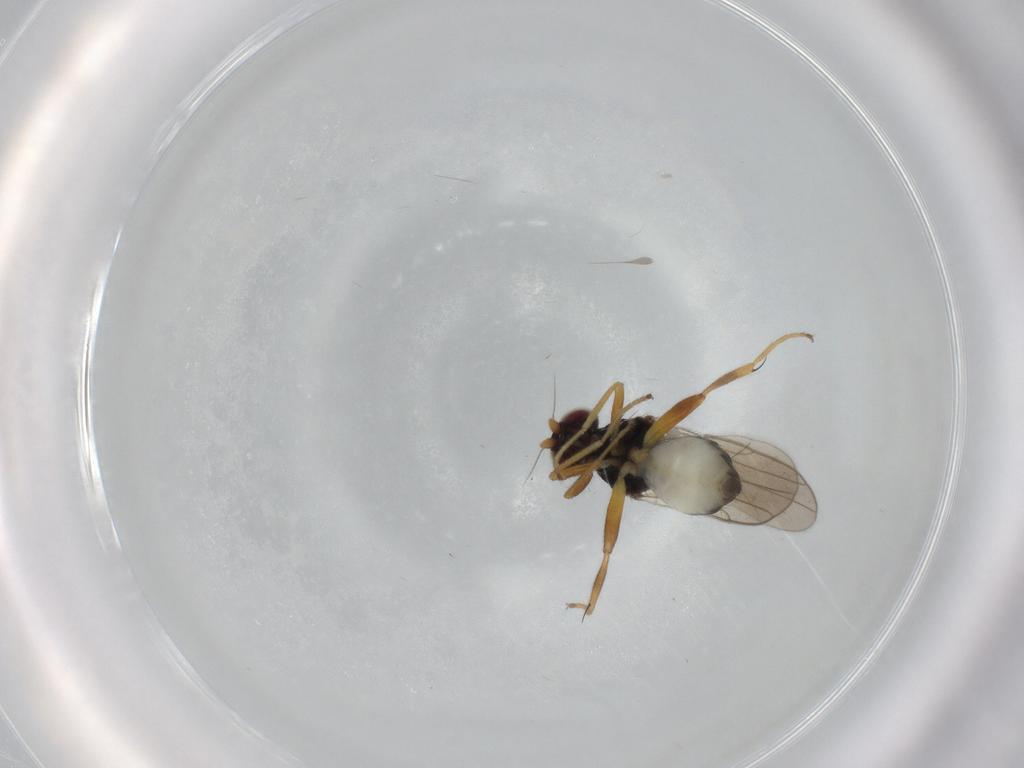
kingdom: Animalia
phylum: Arthropoda
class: Insecta
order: Diptera
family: Chloropidae
